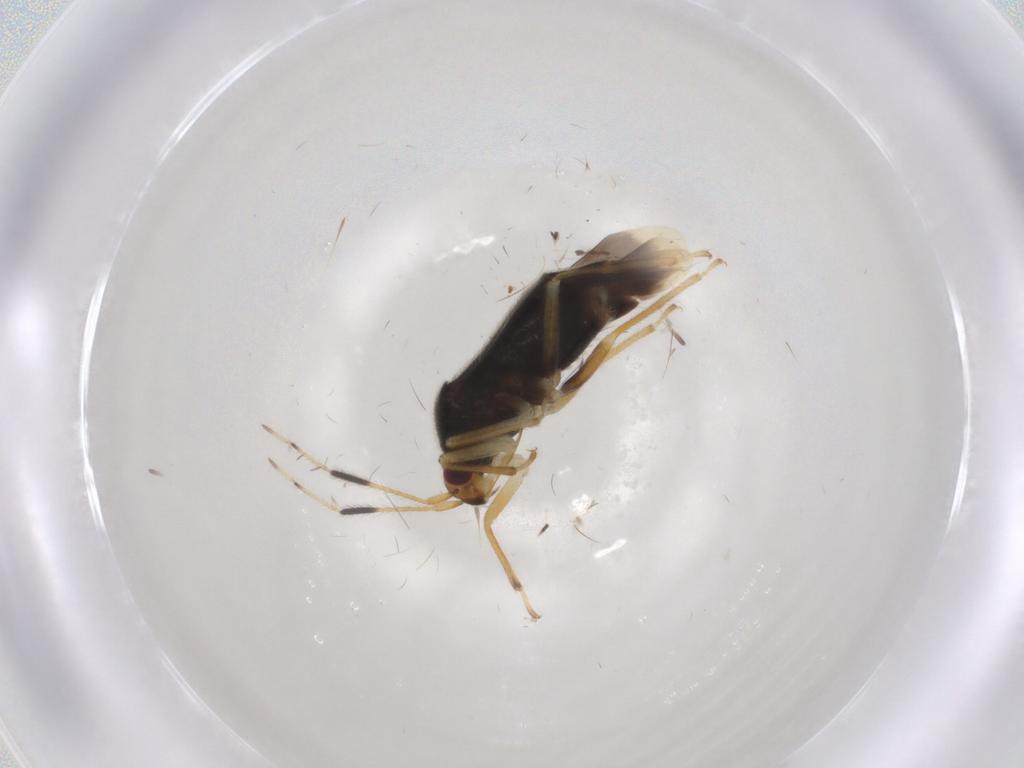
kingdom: Animalia
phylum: Arthropoda
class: Insecta
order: Hemiptera
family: Miridae
